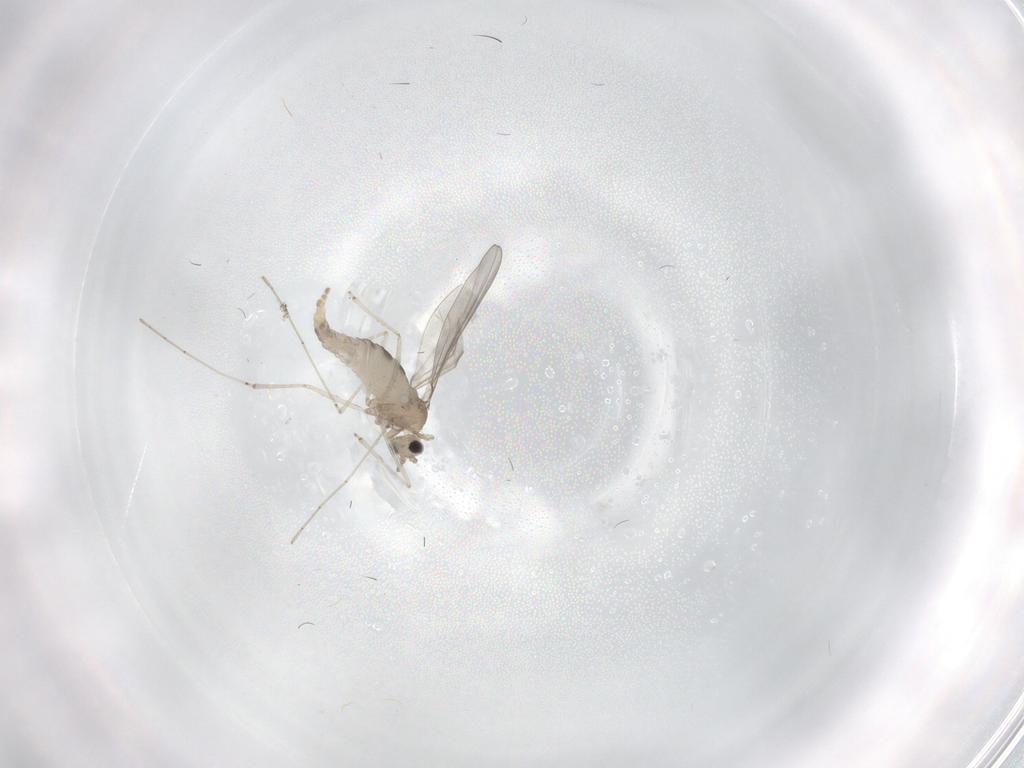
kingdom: Animalia
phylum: Arthropoda
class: Insecta
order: Diptera
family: Cecidomyiidae
